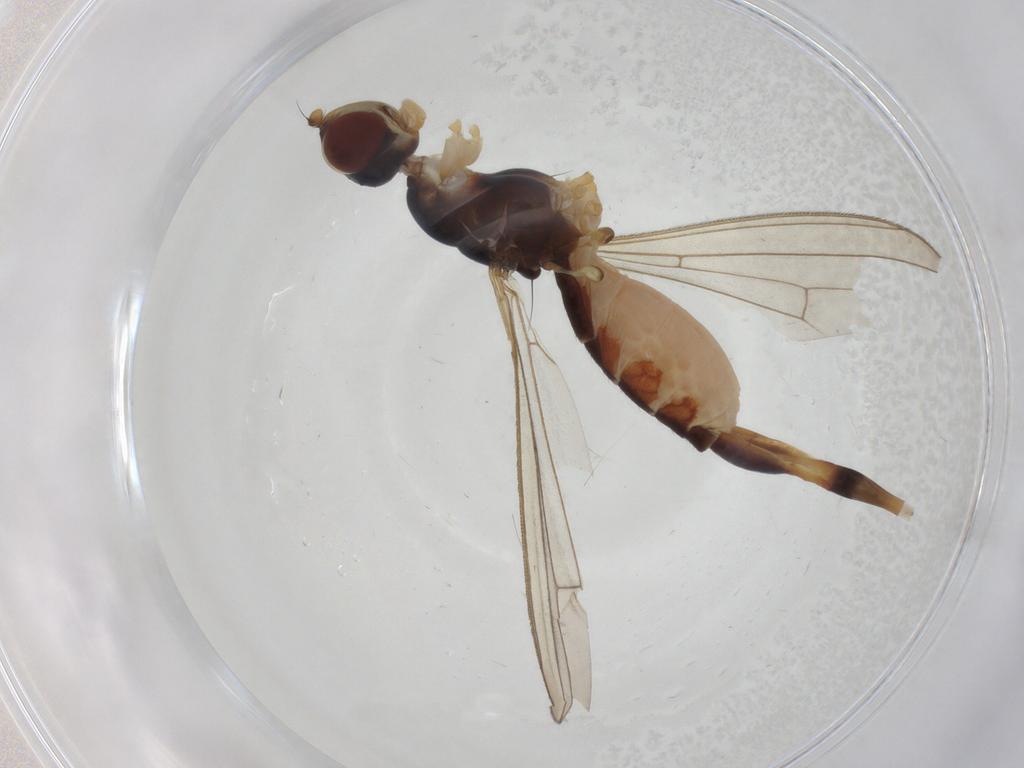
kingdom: Animalia
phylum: Arthropoda
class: Insecta
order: Diptera
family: Micropezidae
